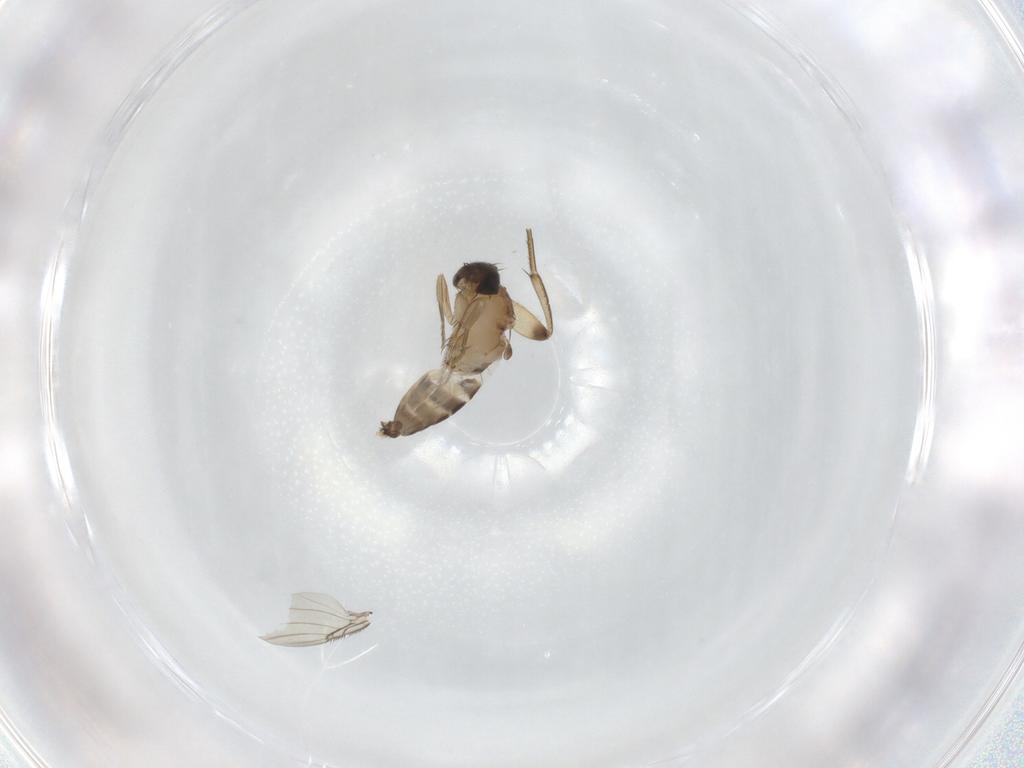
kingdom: Animalia
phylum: Arthropoda
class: Insecta
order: Diptera
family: Phoridae
